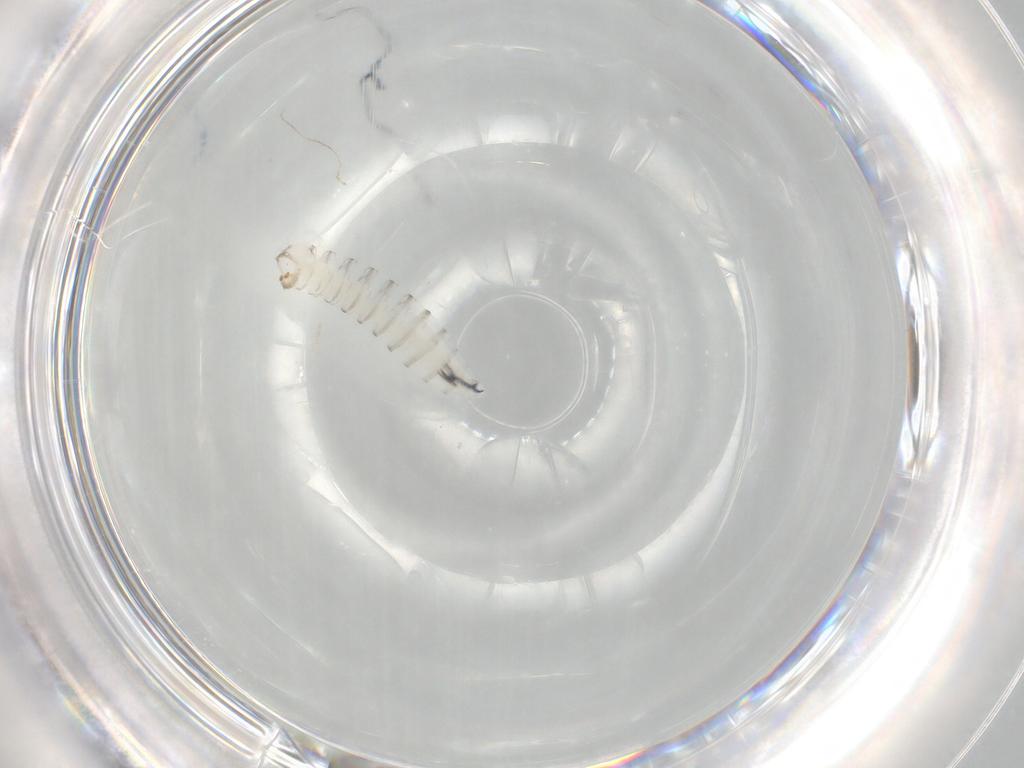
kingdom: Animalia
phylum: Arthropoda
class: Insecta
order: Diptera
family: Sarcophagidae
